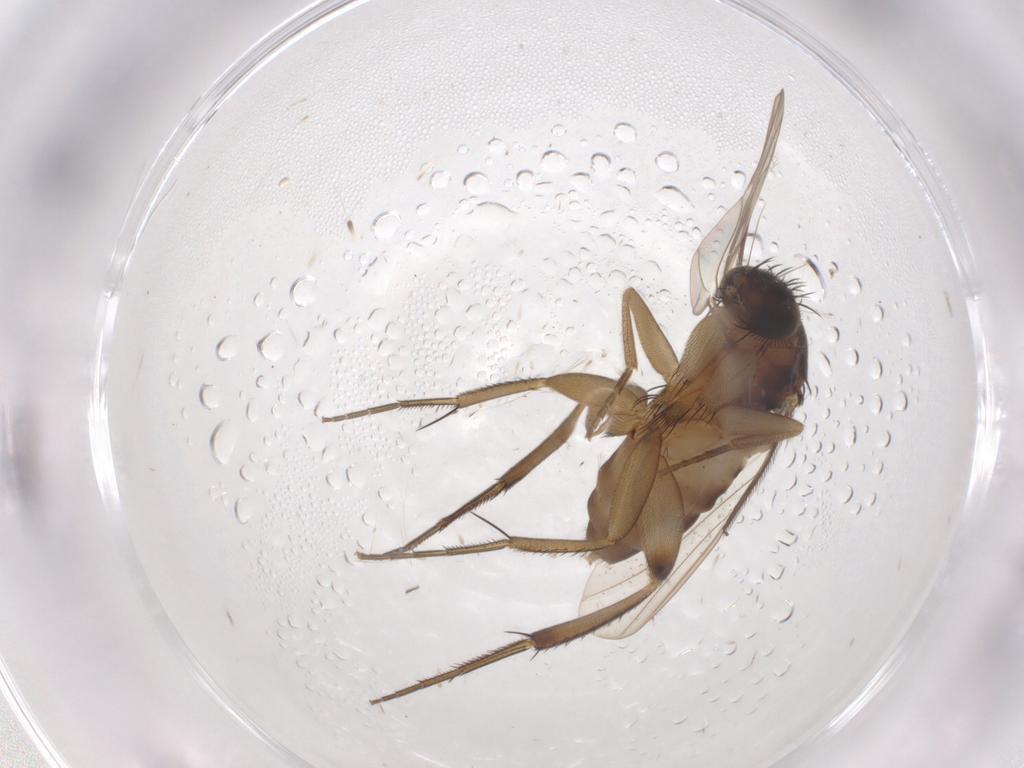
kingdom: Animalia
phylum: Arthropoda
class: Insecta
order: Diptera
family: Phoridae
